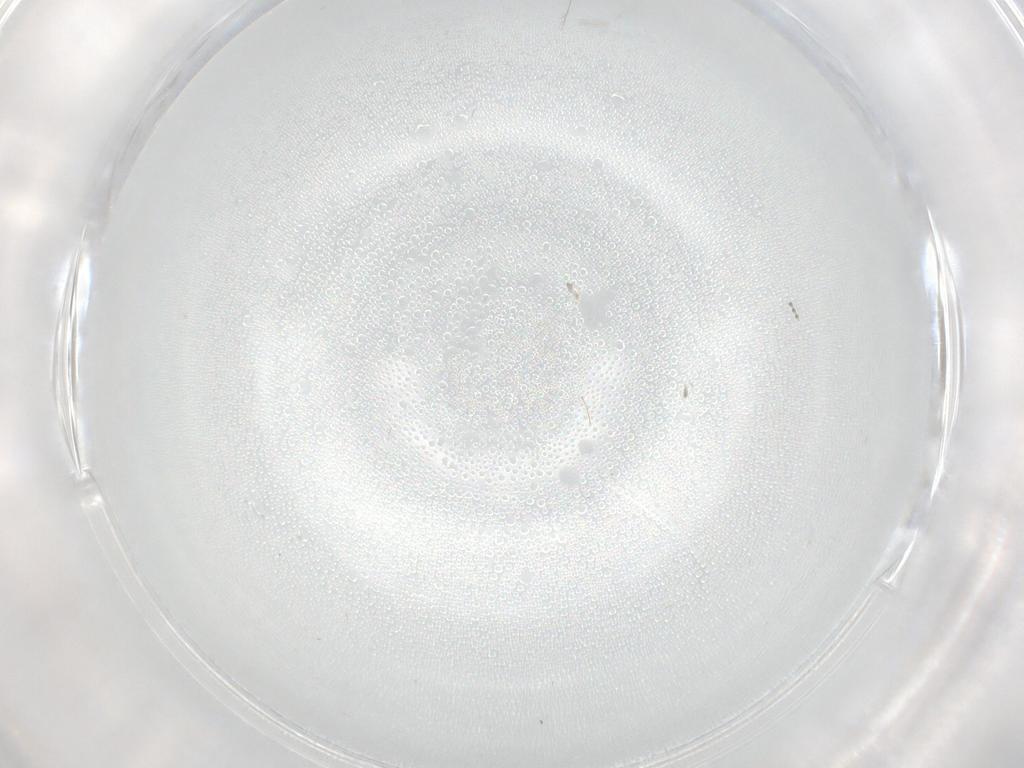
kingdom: Animalia
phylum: Arthropoda
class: Insecta
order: Diptera
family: Psychodidae
